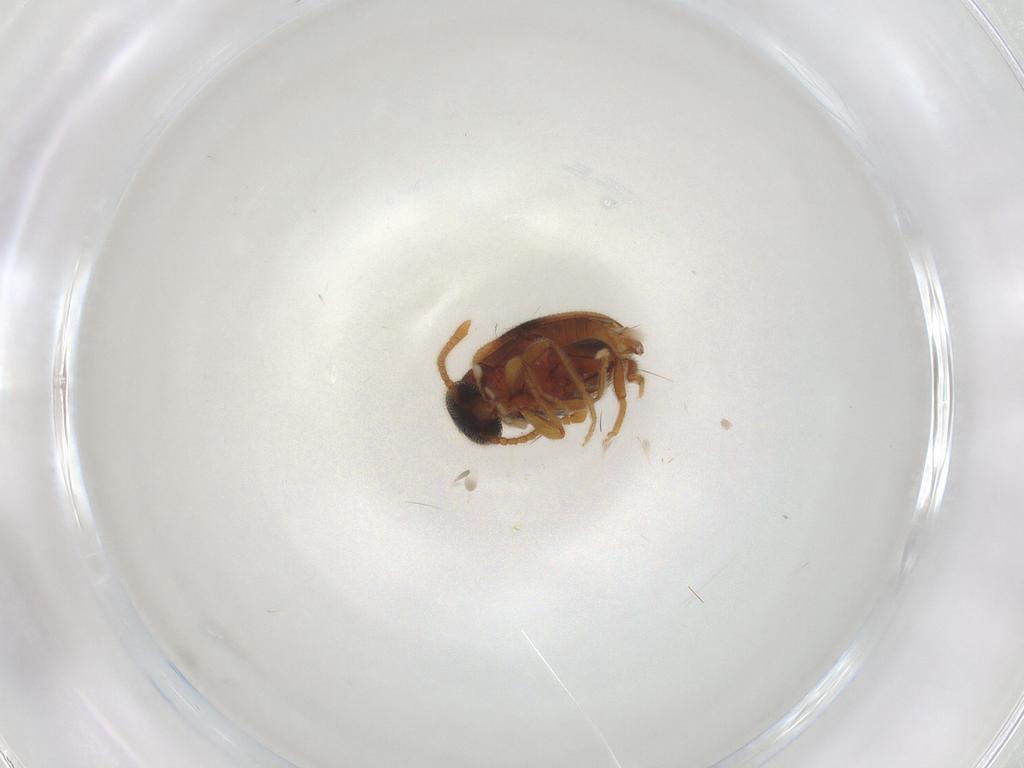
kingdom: Animalia
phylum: Arthropoda
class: Insecta
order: Coleoptera
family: Aderidae
